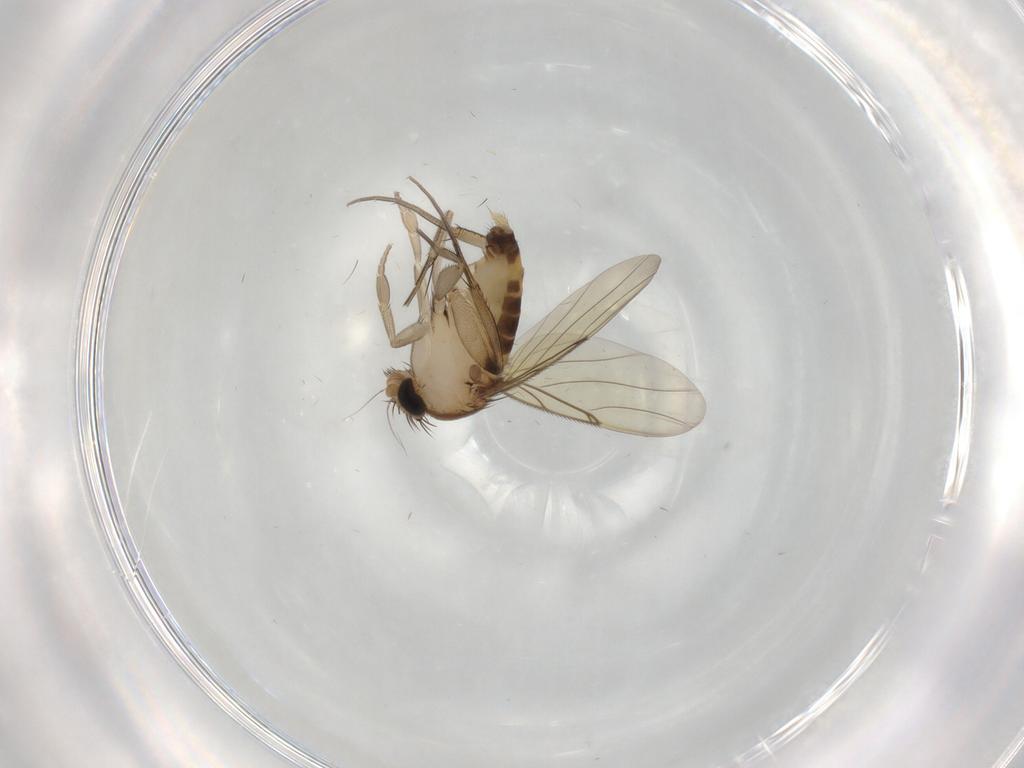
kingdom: Animalia
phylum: Arthropoda
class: Insecta
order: Diptera
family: Phoridae
